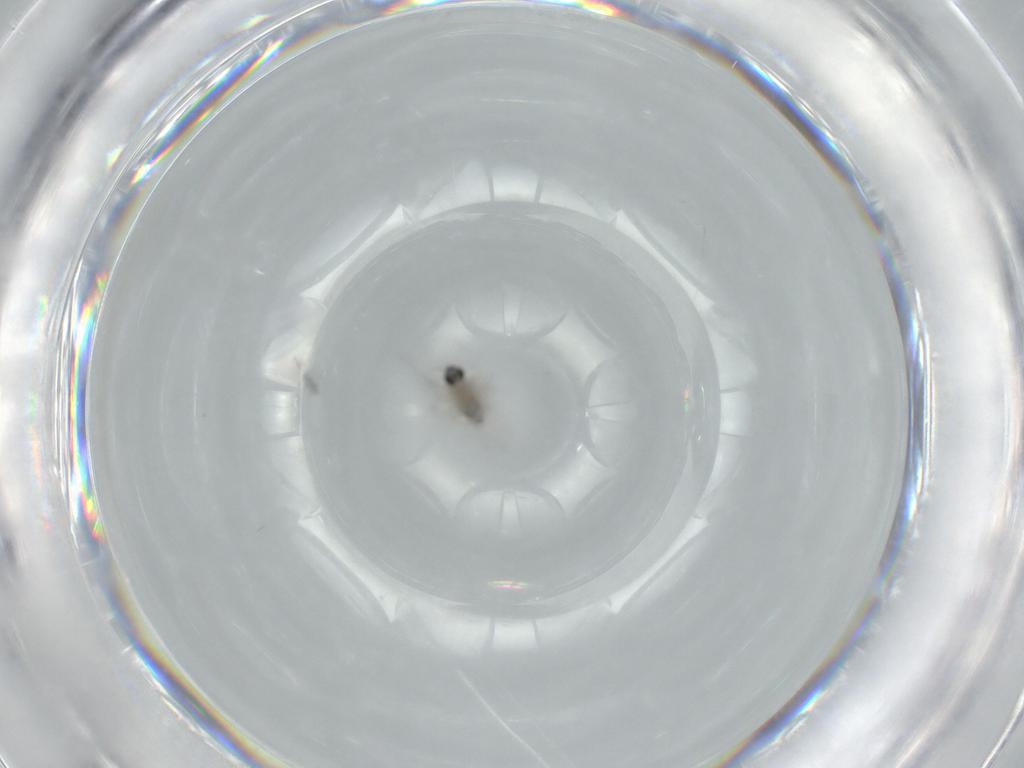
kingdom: Animalia
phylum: Arthropoda
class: Insecta
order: Diptera
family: Cecidomyiidae
